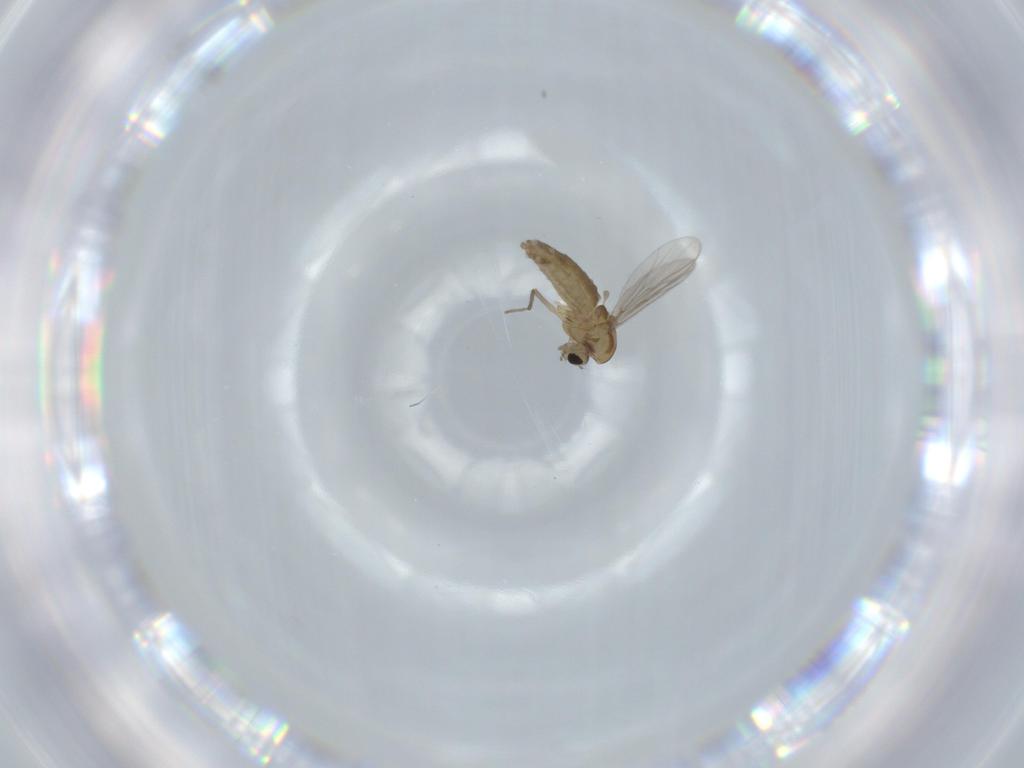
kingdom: Animalia
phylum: Arthropoda
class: Insecta
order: Diptera
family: Chironomidae
